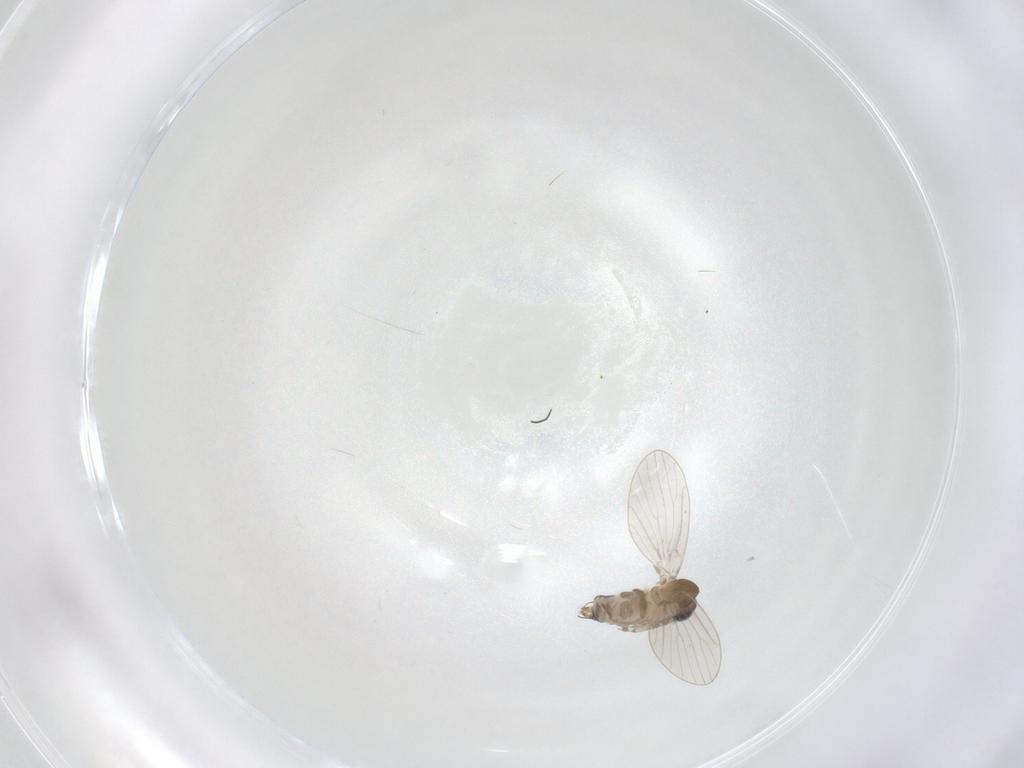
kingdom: Animalia
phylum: Arthropoda
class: Insecta
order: Diptera
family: Psychodidae
